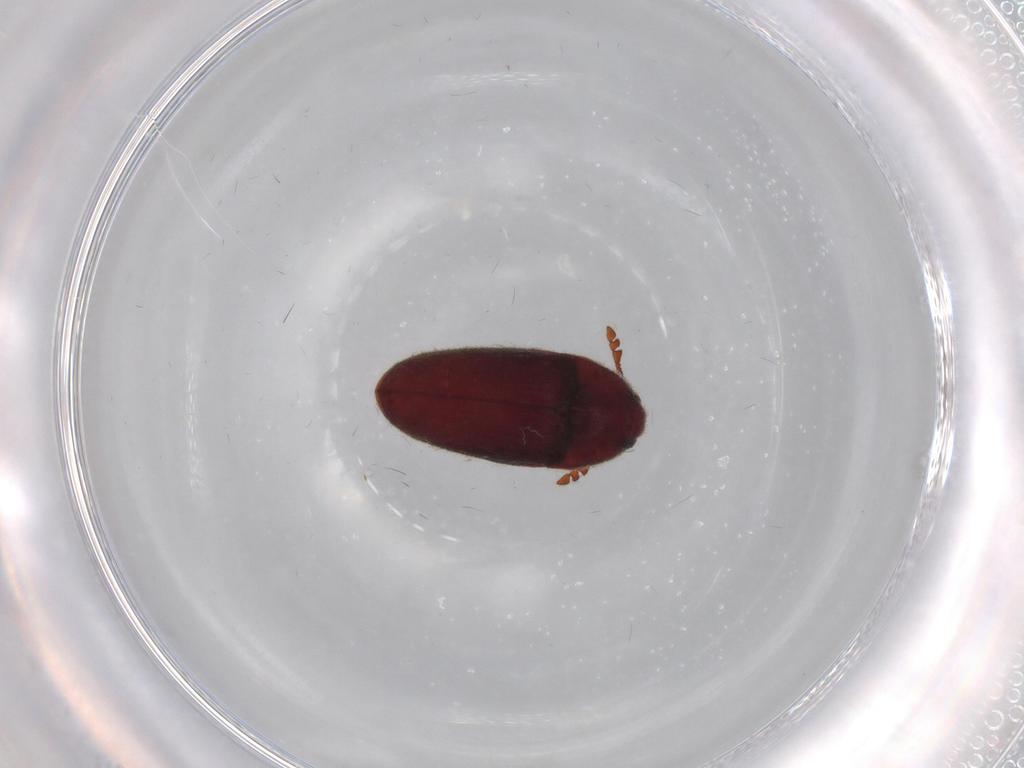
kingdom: Animalia
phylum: Arthropoda
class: Insecta
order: Coleoptera
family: Throscidae
